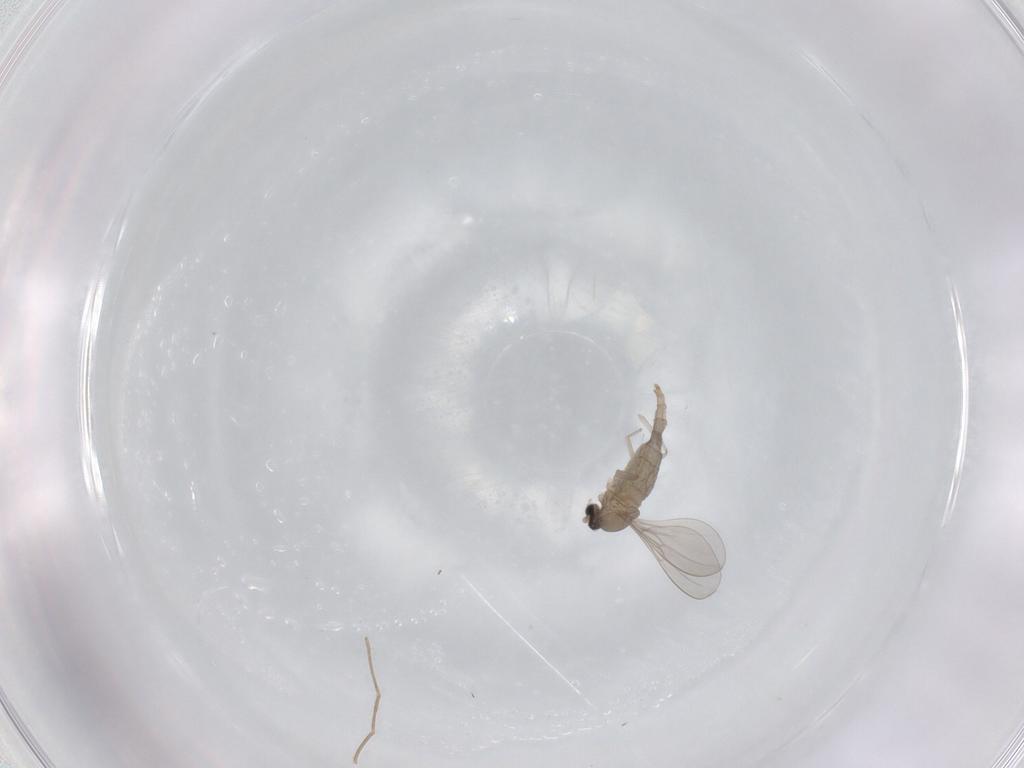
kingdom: Animalia
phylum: Arthropoda
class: Insecta
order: Diptera
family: Cecidomyiidae
